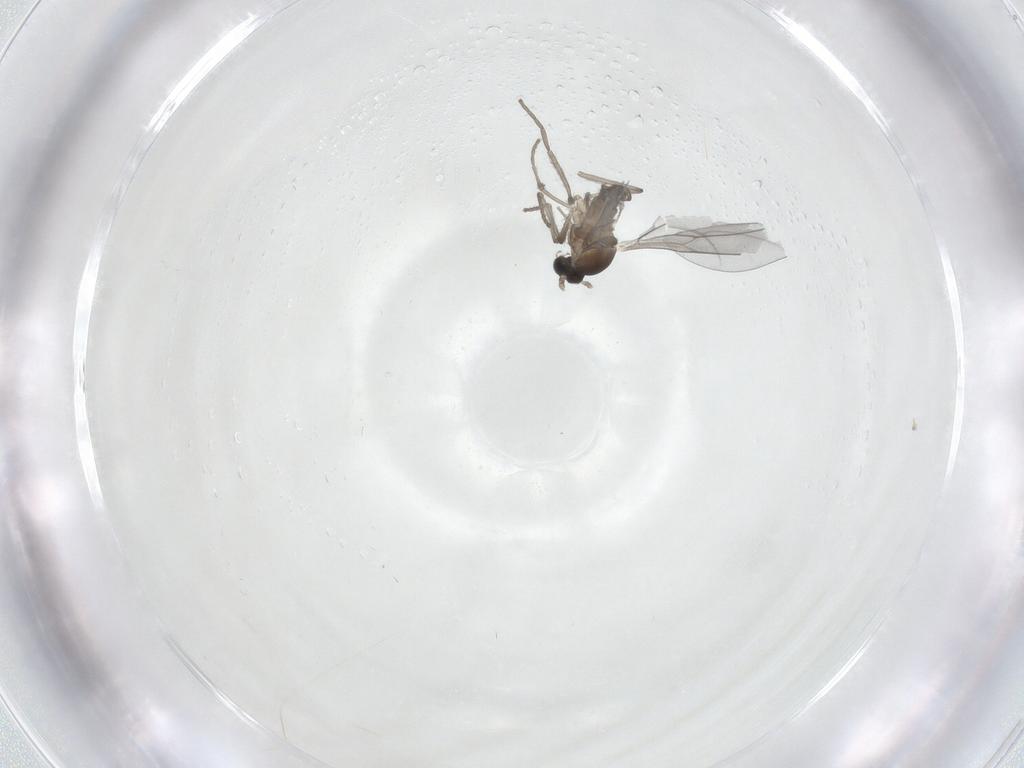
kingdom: Animalia
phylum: Arthropoda
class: Insecta
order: Diptera
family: Cecidomyiidae
